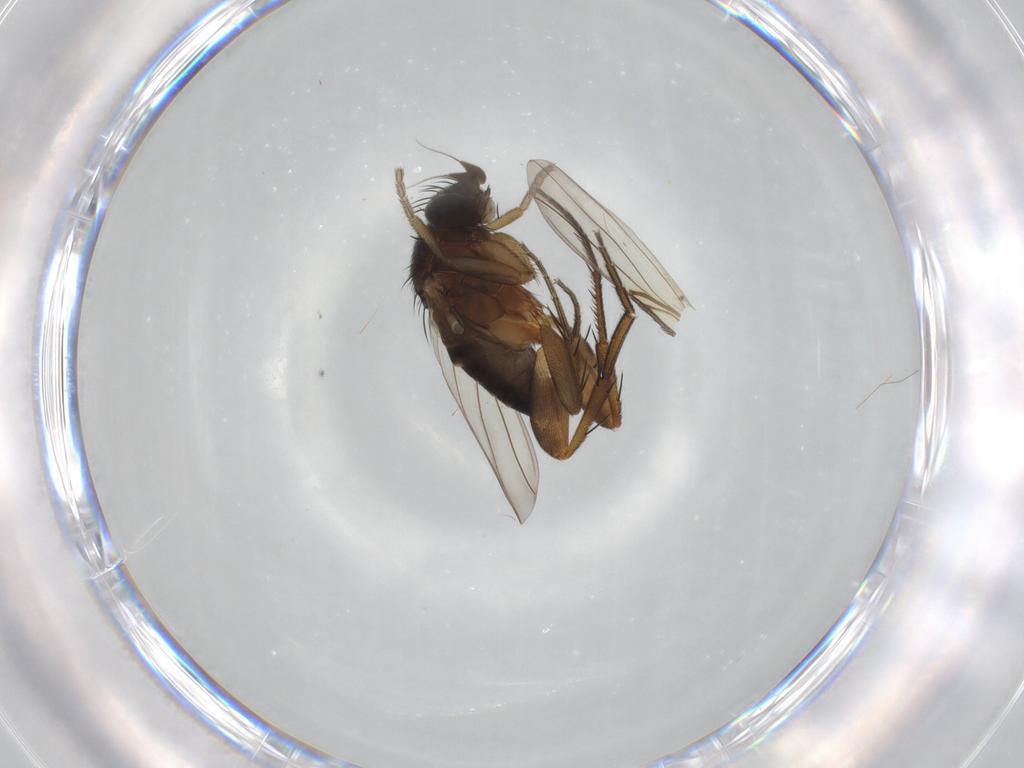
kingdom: Animalia
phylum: Arthropoda
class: Insecta
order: Diptera
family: Phoridae
